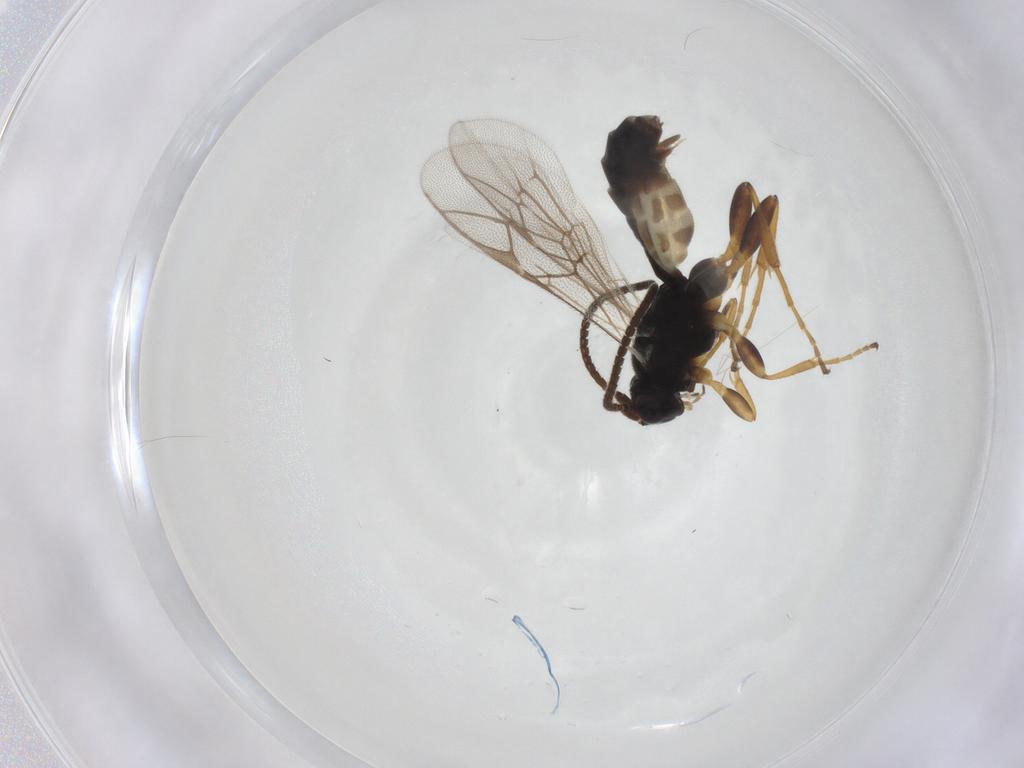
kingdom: Animalia
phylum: Arthropoda
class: Insecta
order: Hymenoptera
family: Ichneumonidae
